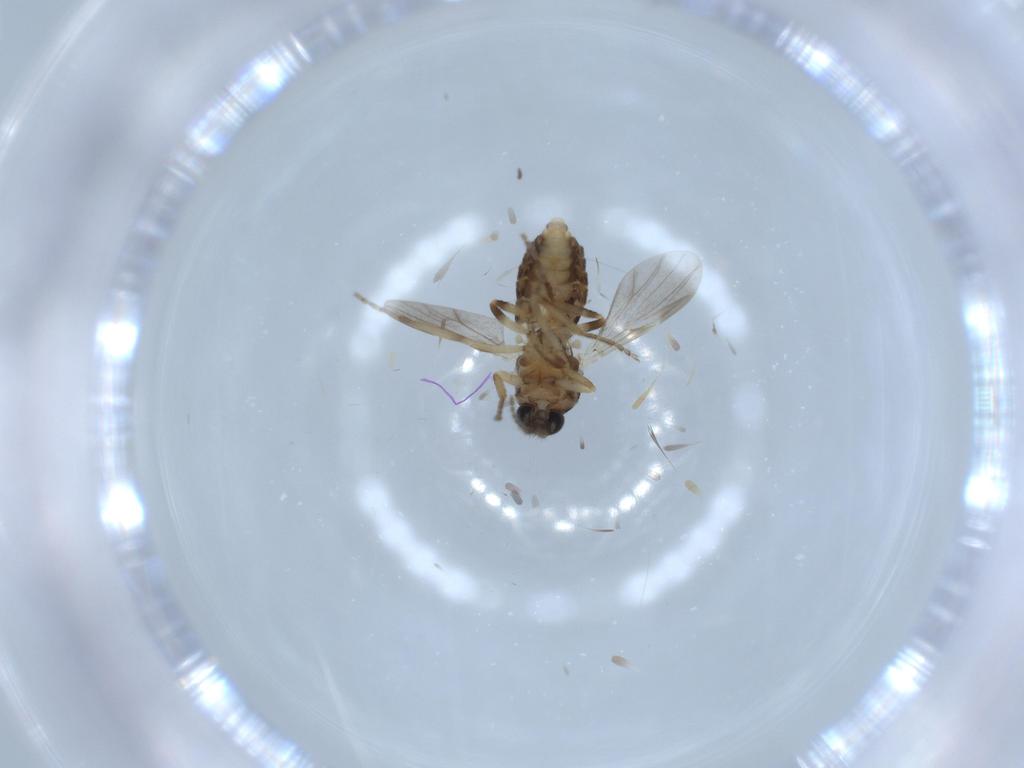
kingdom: Animalia
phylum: Arthropoda
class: Insecta
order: Diptera
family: Ceratopogonidae
